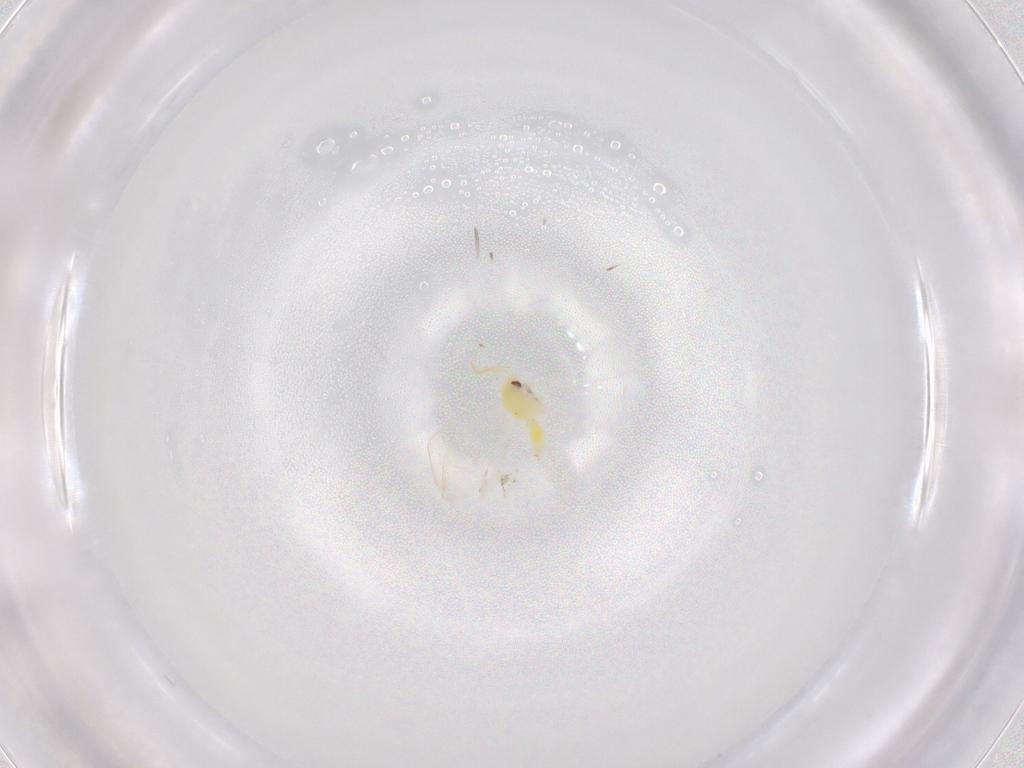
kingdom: Animalia
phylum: Arthropoda
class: Insecta
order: Hemiptera
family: Aleyrodidae
